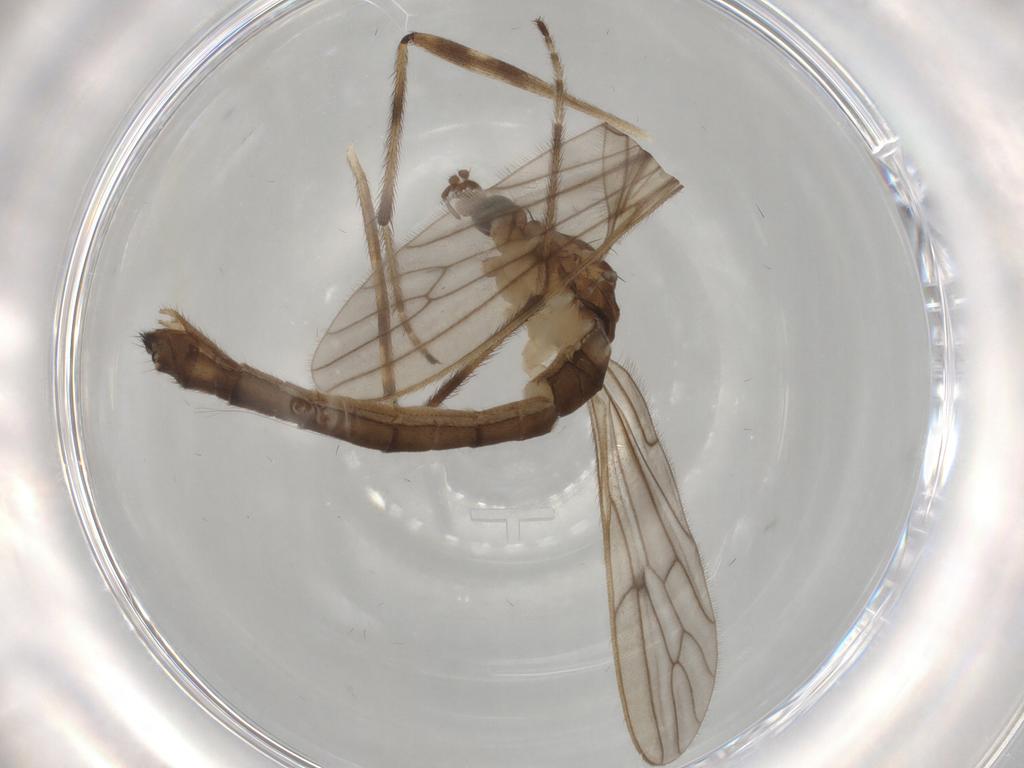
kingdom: Animalia
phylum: Arthropoda
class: Insecta
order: Diptera
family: Limoniidae
